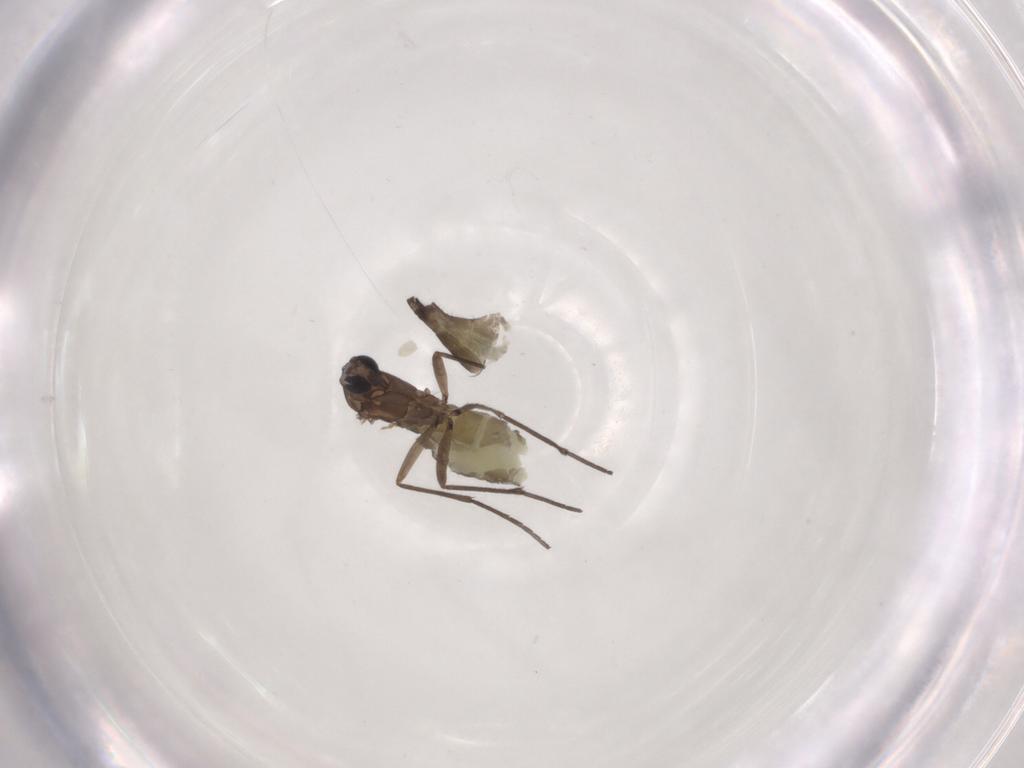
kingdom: Animalia
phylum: Arthropoda
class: Insecta
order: Diptera
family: Sciaridae
